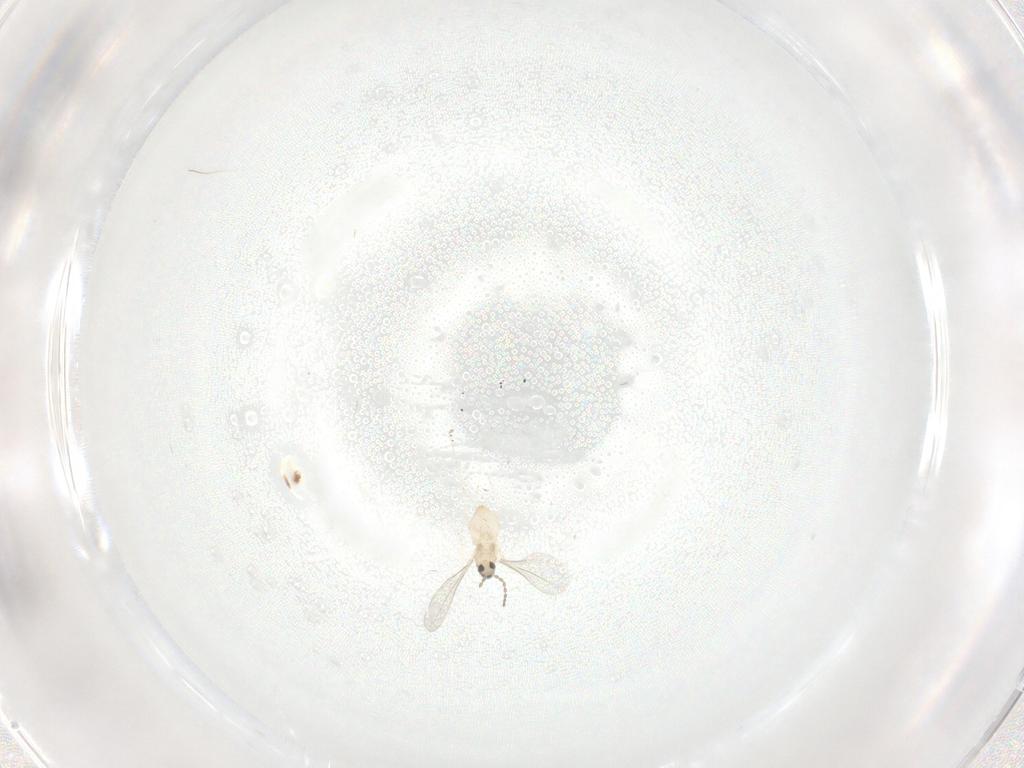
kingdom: Animalia
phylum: Arthropoda
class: Insecta
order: Diptera
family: Cecidomyiidae
